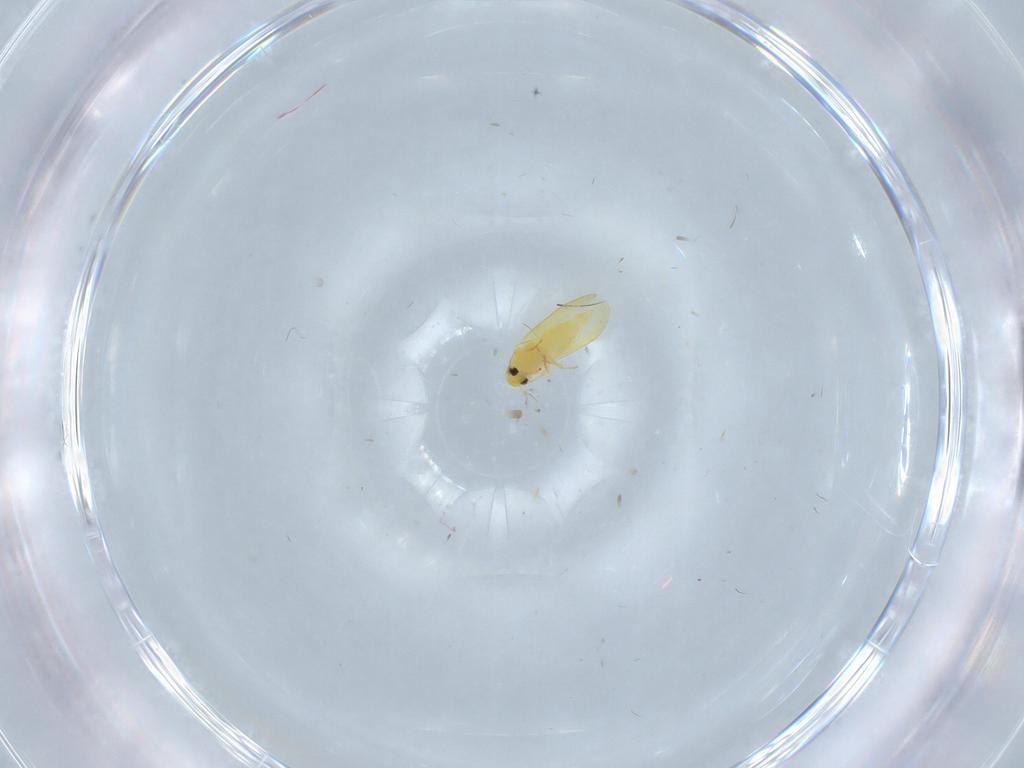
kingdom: Animalia
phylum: Arthropoda
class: Insecta
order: Hemiptera
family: Aleyrodidae
